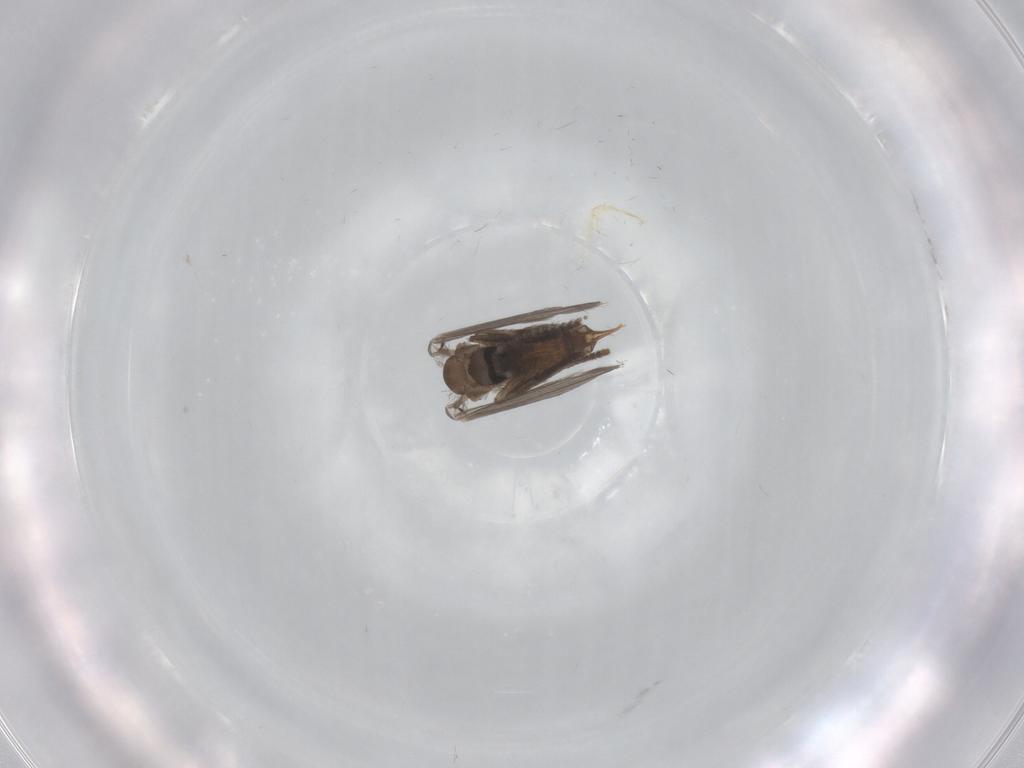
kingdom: Animalia
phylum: Arthropoda
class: Insecta
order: Diptera
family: Psychodidae
